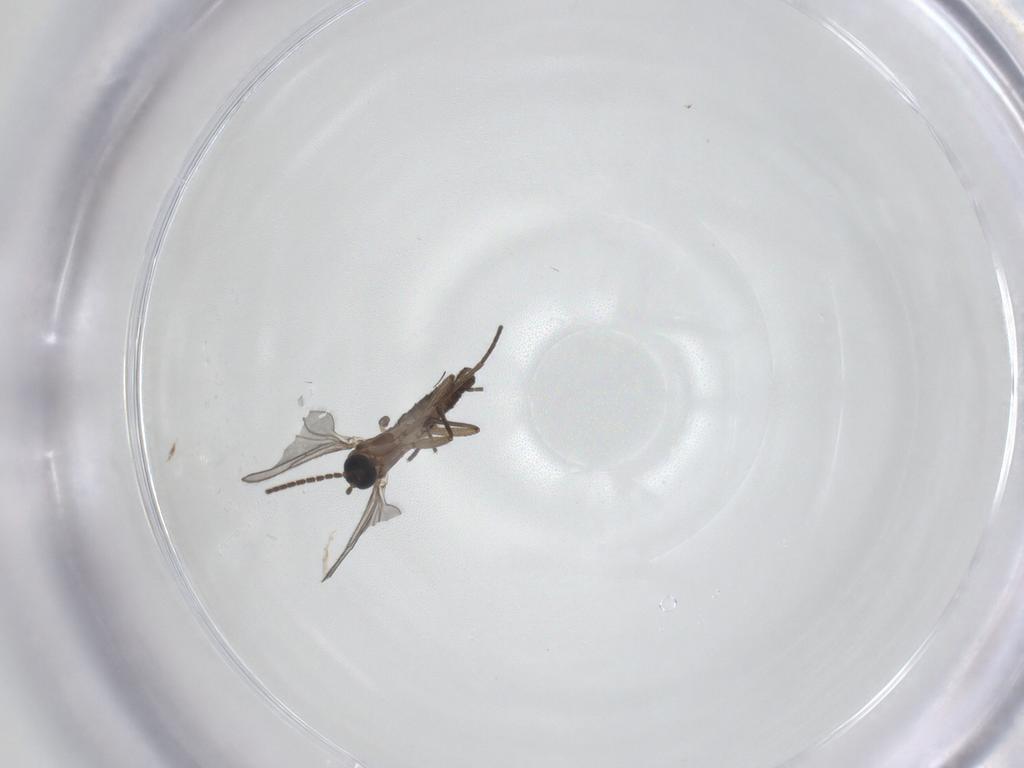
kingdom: Animalia
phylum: Arthropoda
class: Insecta
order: Diptera
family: Sciaridae
